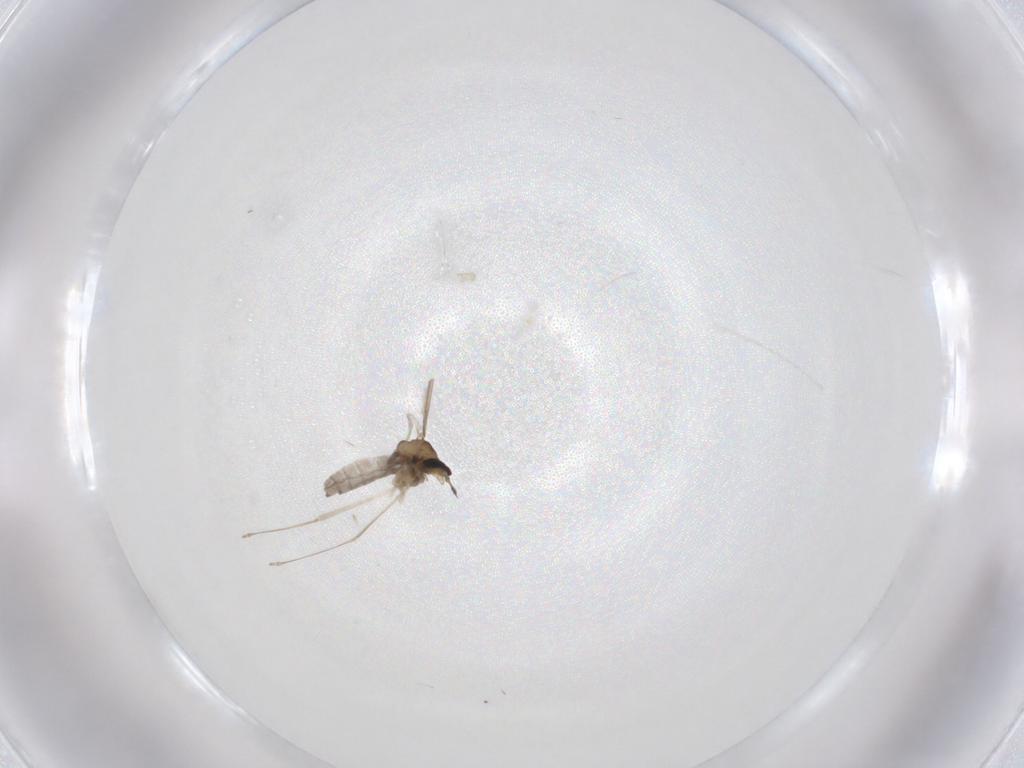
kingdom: Animalia
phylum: Arthropoda
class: Insecta
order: Diptera
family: Cecidomyiidae
